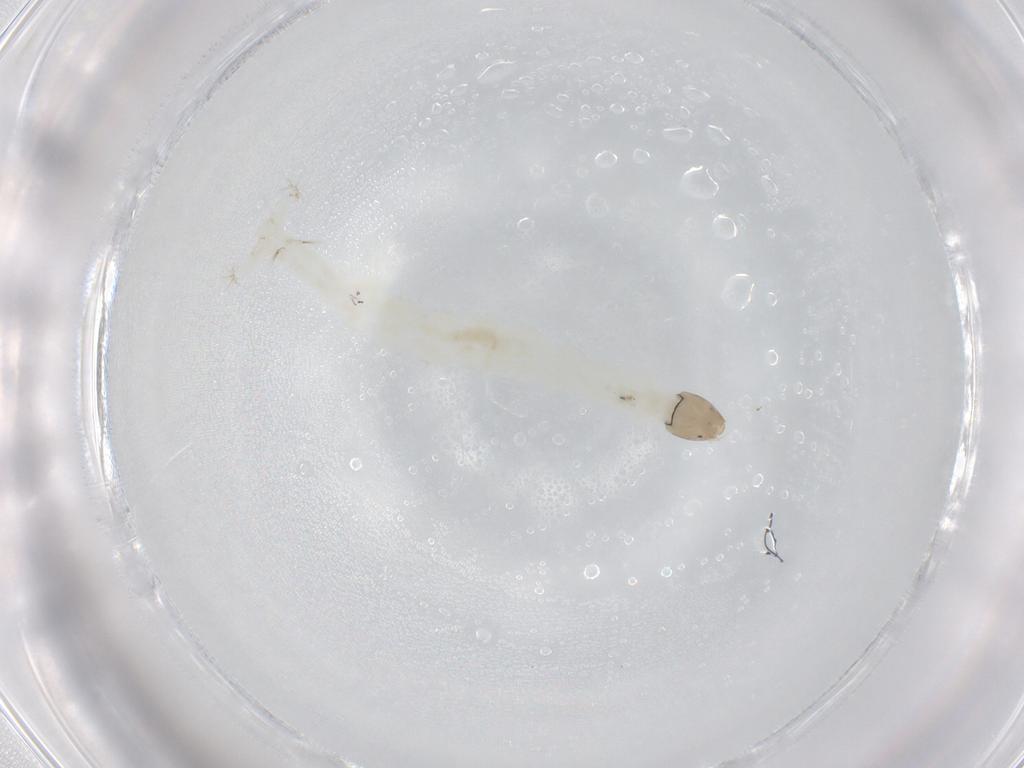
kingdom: Animalia
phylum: Arthropoda
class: Insecta
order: Diptera
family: Chironomidae
